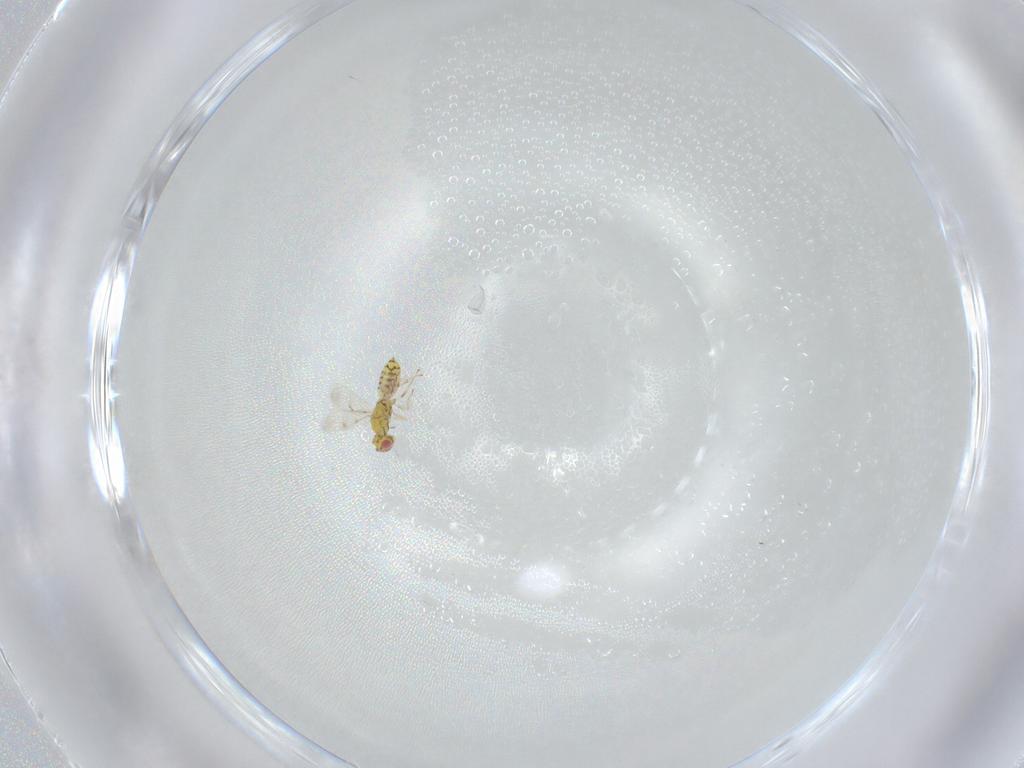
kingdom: Animalia
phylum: Arthropoda
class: Insecta
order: Hymenoptera
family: Eulophidae
